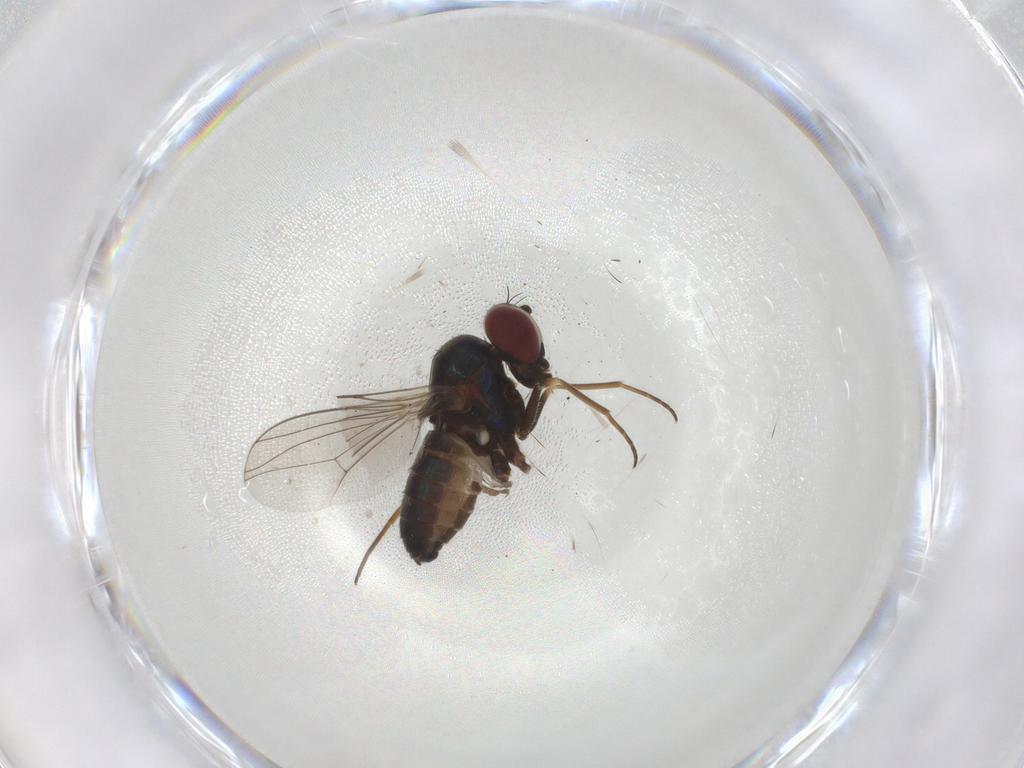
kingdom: Animalia
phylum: Arthropoda
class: Insecta
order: Diptera
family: Dolichopodidae
